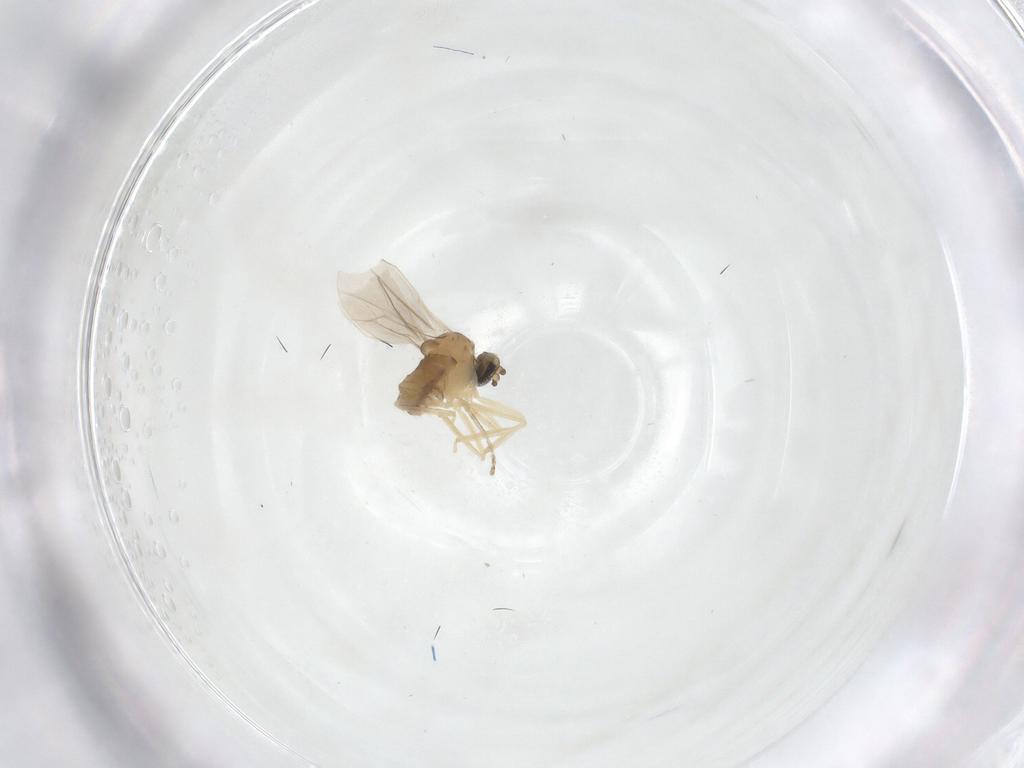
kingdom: Animalia
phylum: Arthropoda
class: Insecta
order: Diptera
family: Cecidomyiidae
